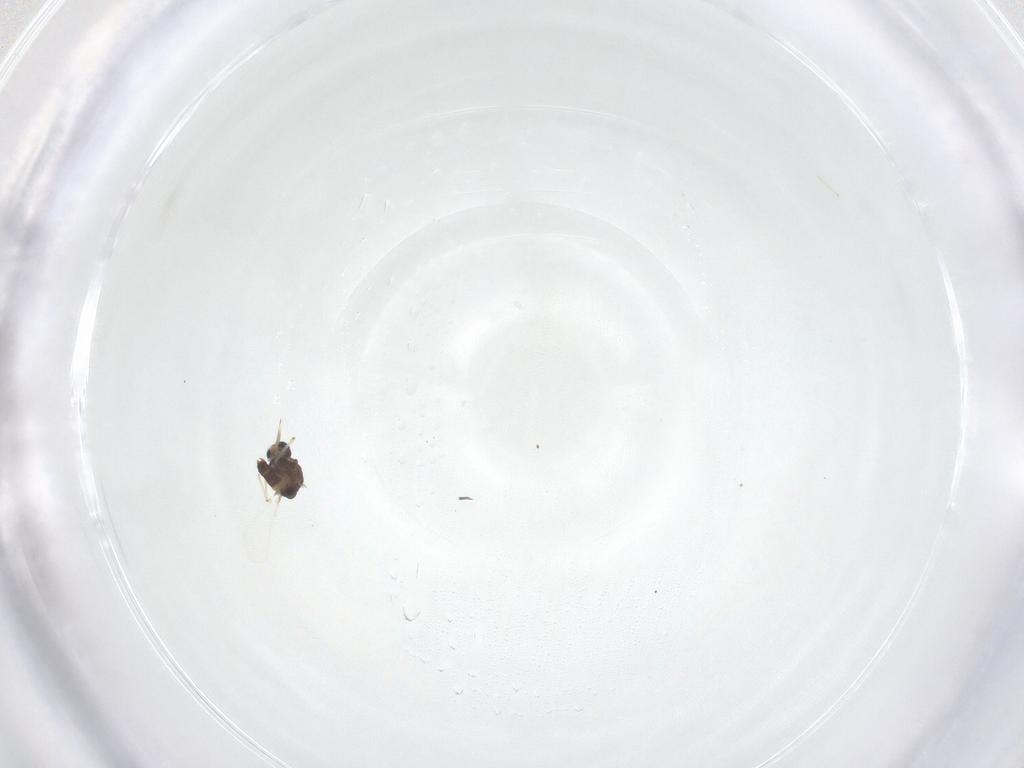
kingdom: Animalia
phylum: Arthropoda
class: Insecta
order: Diptera
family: Chironomidae
